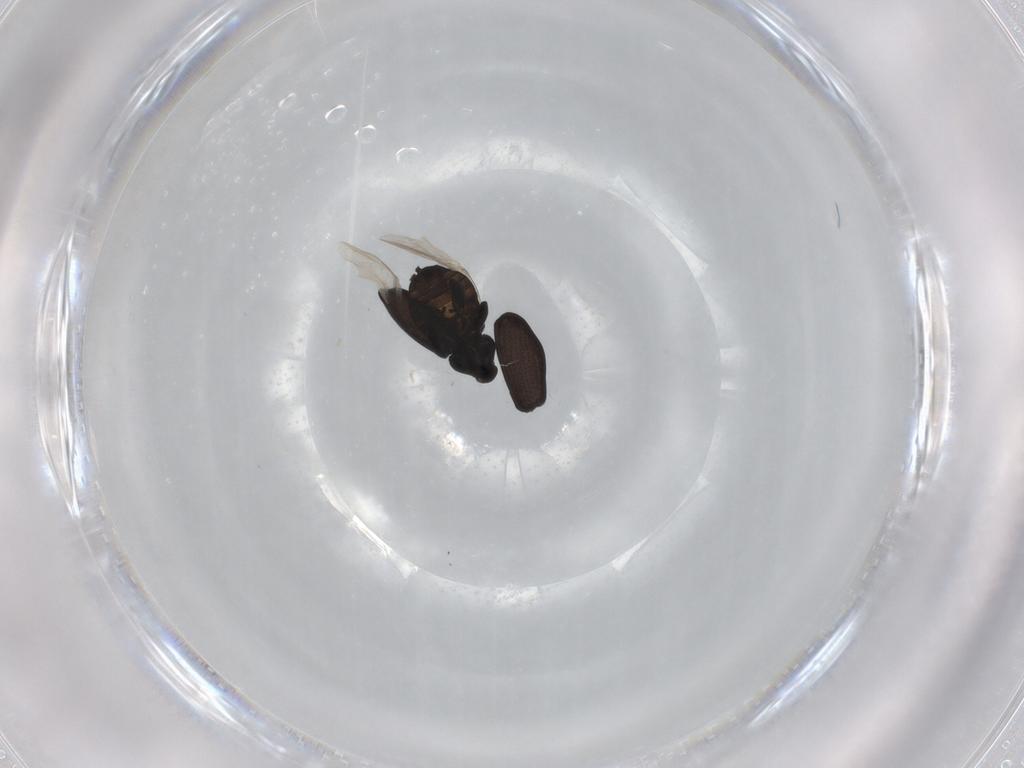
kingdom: Animalia
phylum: Arthropoda
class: Insecta
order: Coleoptera
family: Curculionidae
